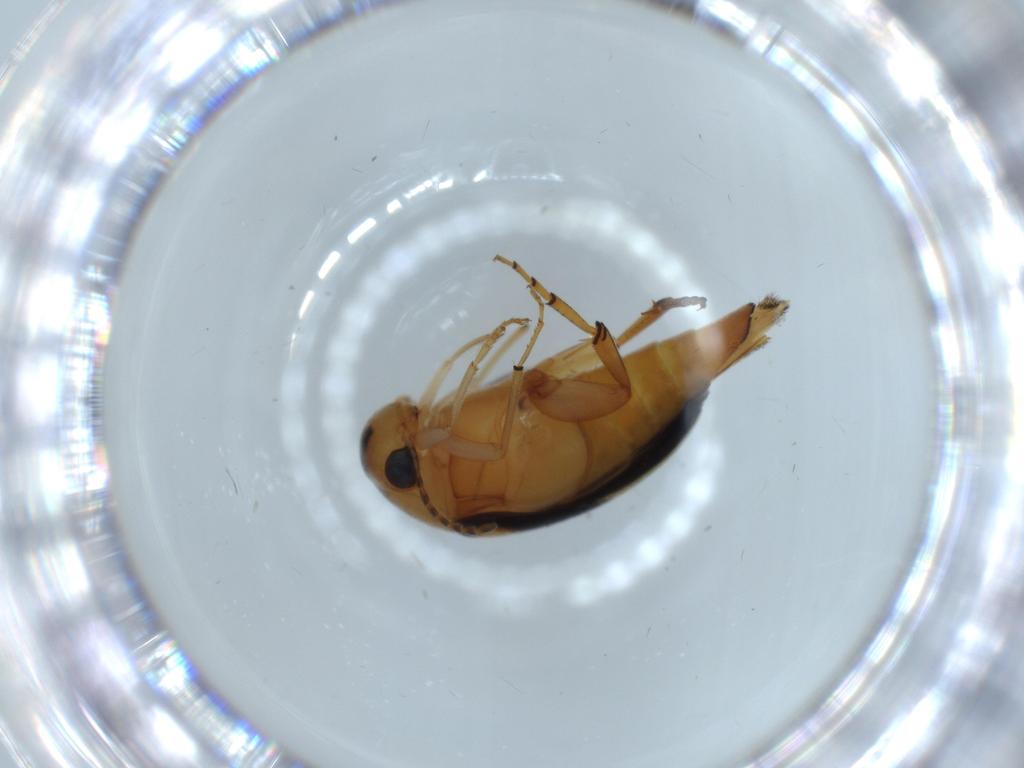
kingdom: Animalia
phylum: Arthropoda
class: Insecta
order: Coleoptera
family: Mordellidae
